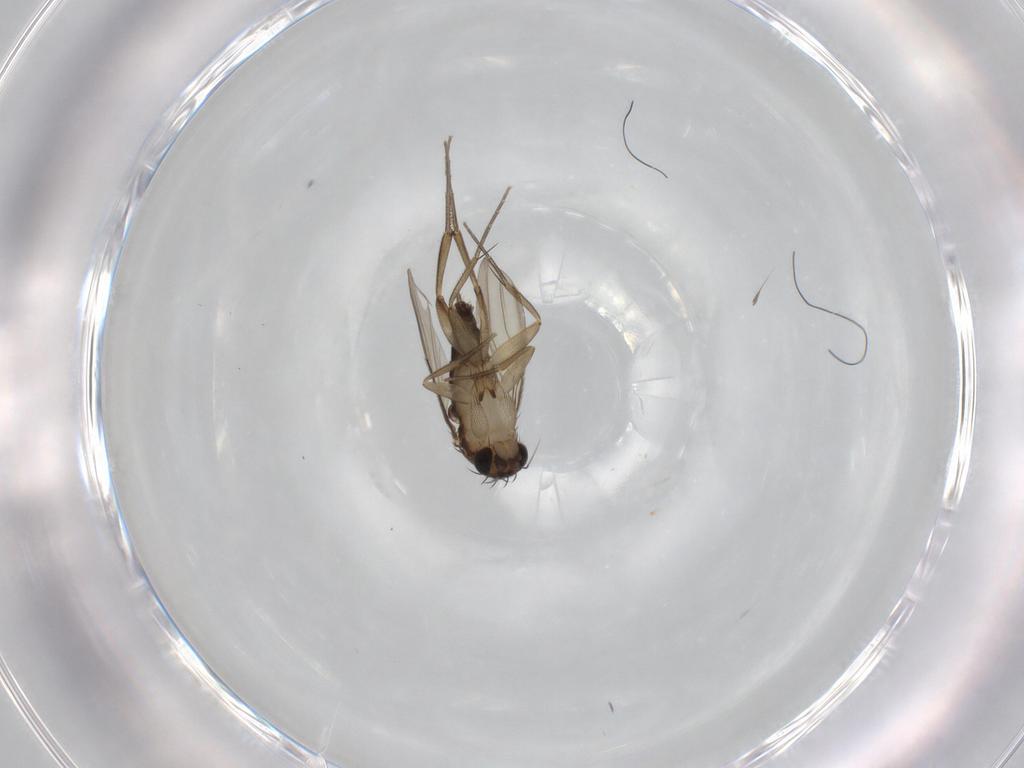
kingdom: Animalia
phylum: Arthropoda
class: Insecta
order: Diptera
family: Phoridae
